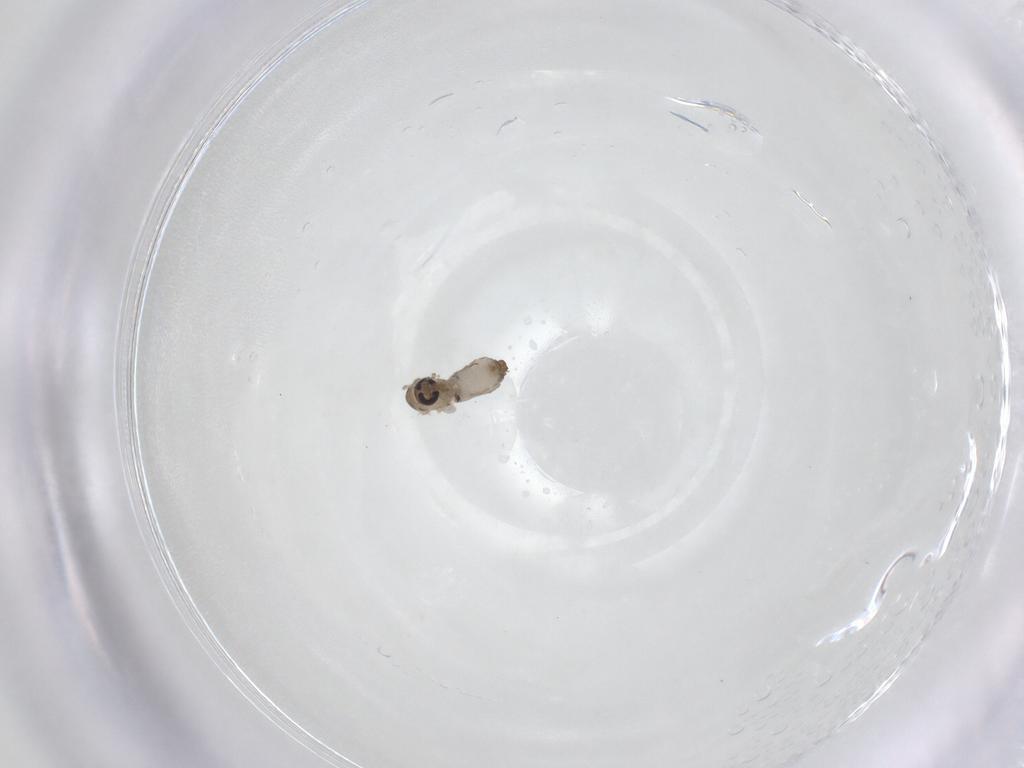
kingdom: Animalia
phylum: Arthropoda
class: Insecta
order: Diptera
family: Psychodidae
